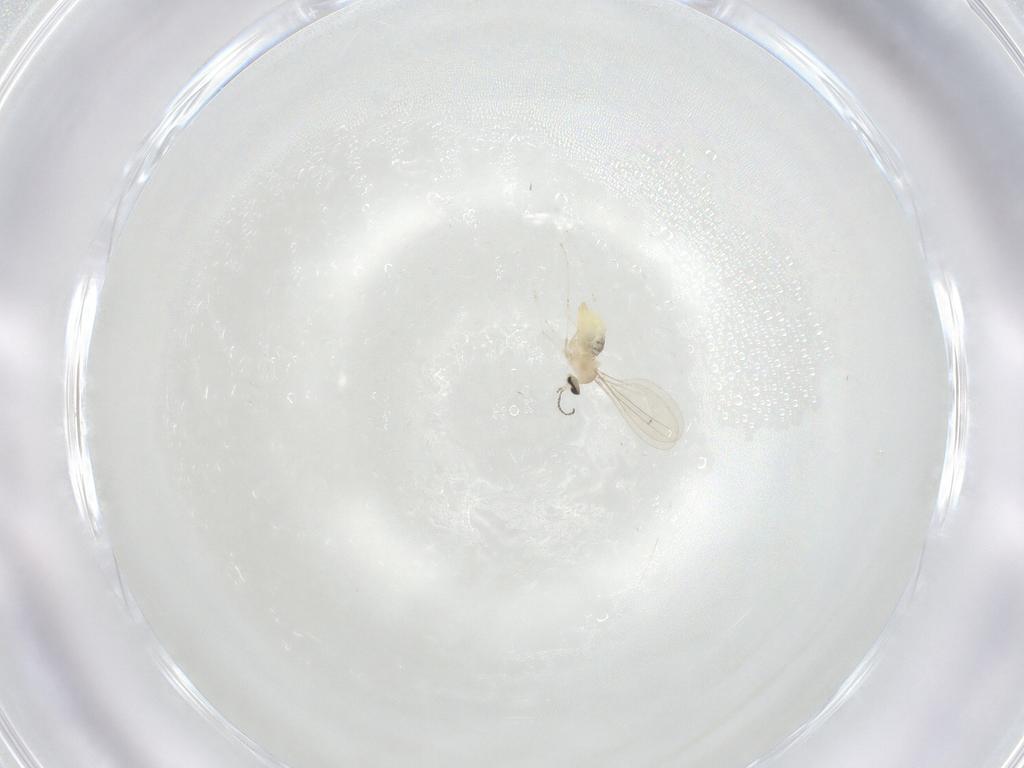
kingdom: Animalia
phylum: Arthropoda
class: Insecta
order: Diptera
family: Cecidomyiidae
